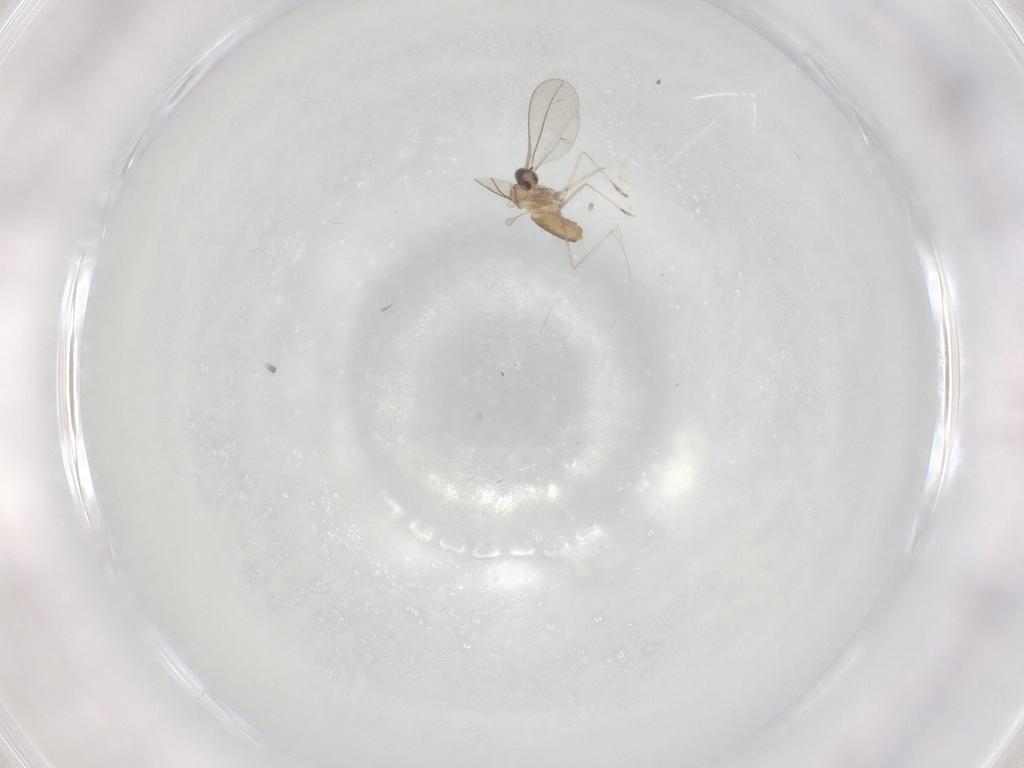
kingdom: Animalia
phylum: Arthropoda
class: Insecta
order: Diptera
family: Cecidomyiidae
